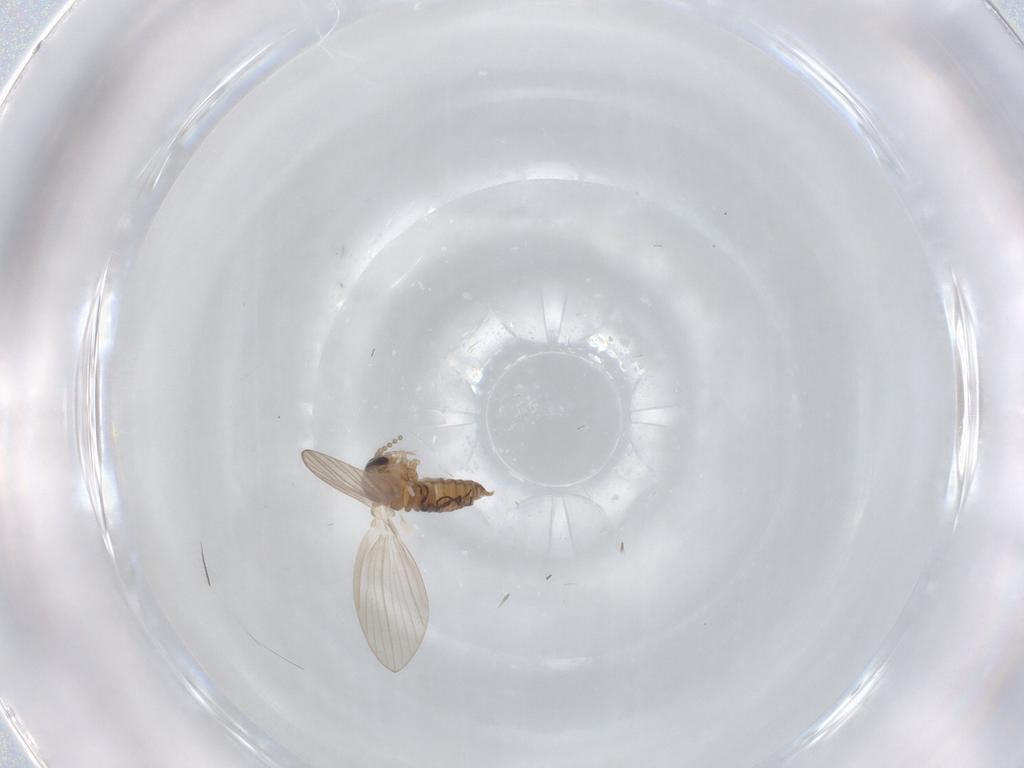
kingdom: Animalia
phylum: Arthropoda
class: Insecta
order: Diptera
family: Psychodidae
